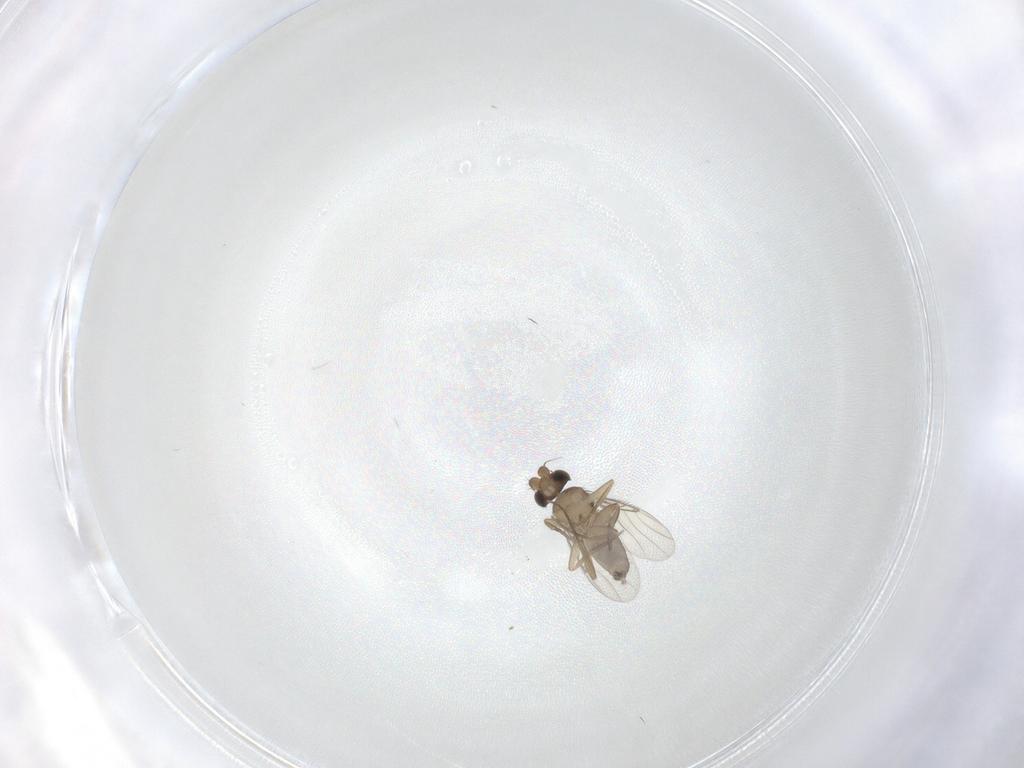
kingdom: Animalia
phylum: Arthropoda
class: Insecta
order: Diptera
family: Phoridae
